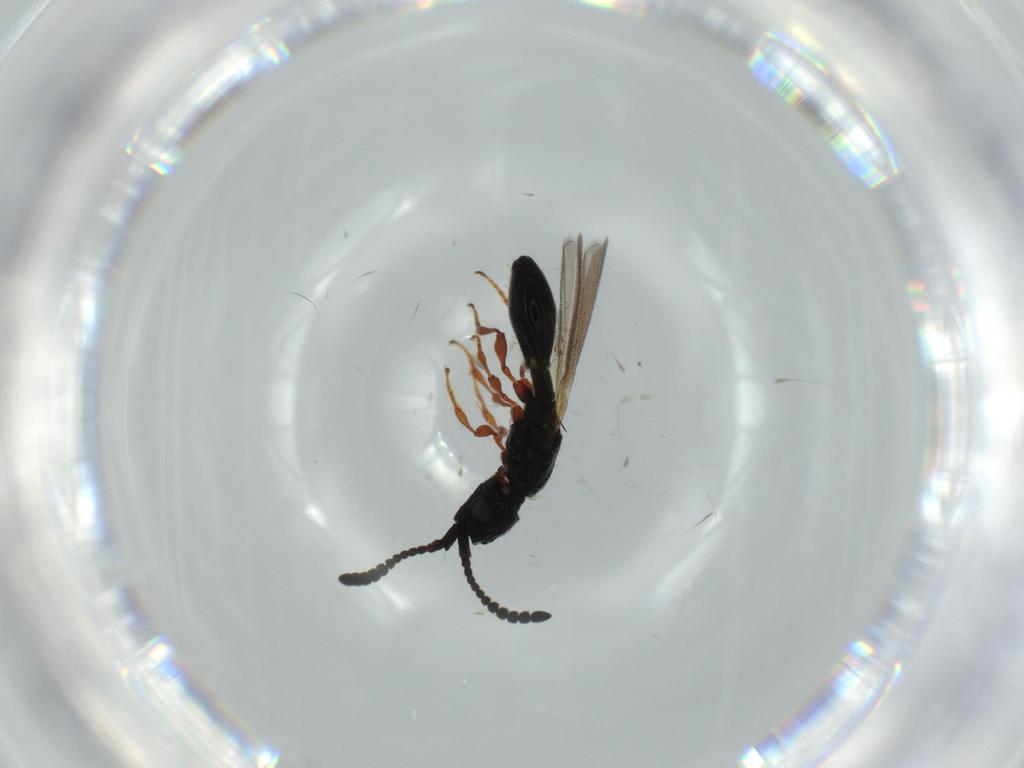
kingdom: Animalia
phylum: Arthropoda
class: Insecta
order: Hymenoptera
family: Diapriidae
